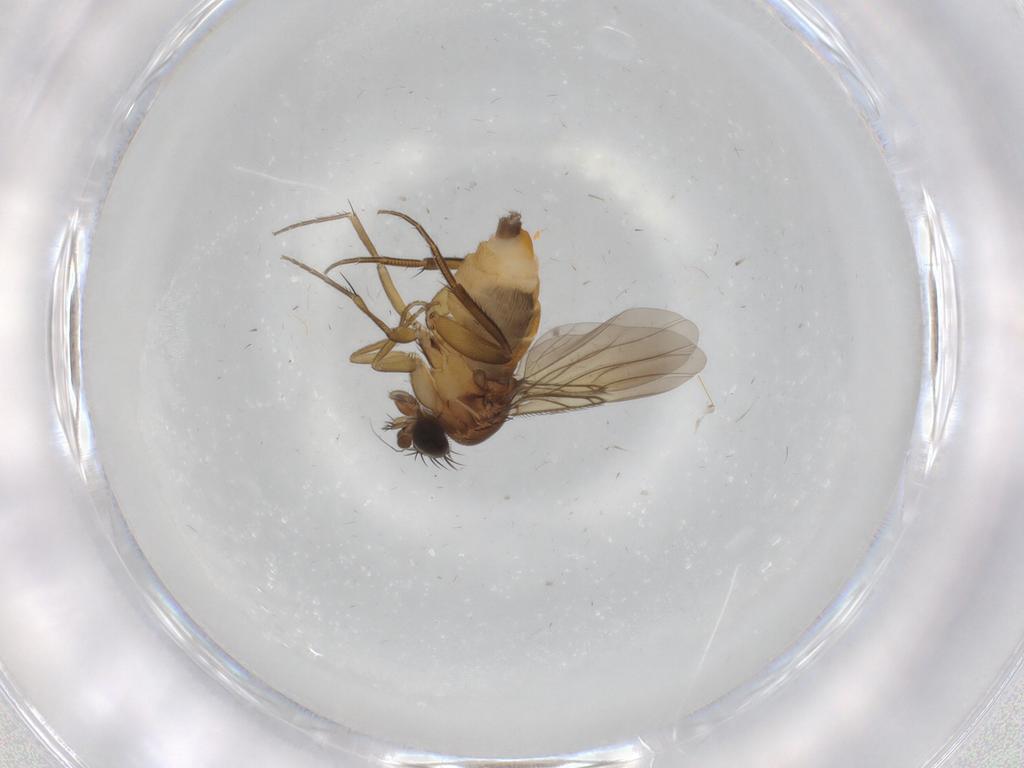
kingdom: Animalia
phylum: Arthropoda
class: Insecta
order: Diptera
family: Phoridae
